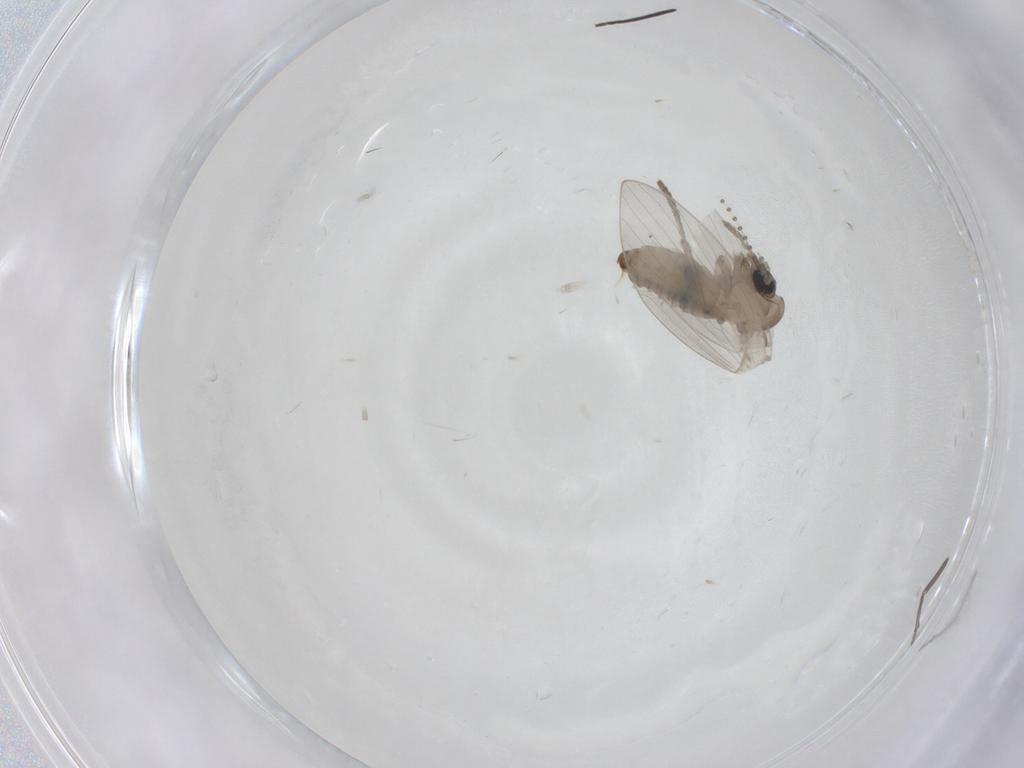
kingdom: Animalia
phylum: Arthropoda
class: Insecta
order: Diptera
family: Psychodidae
